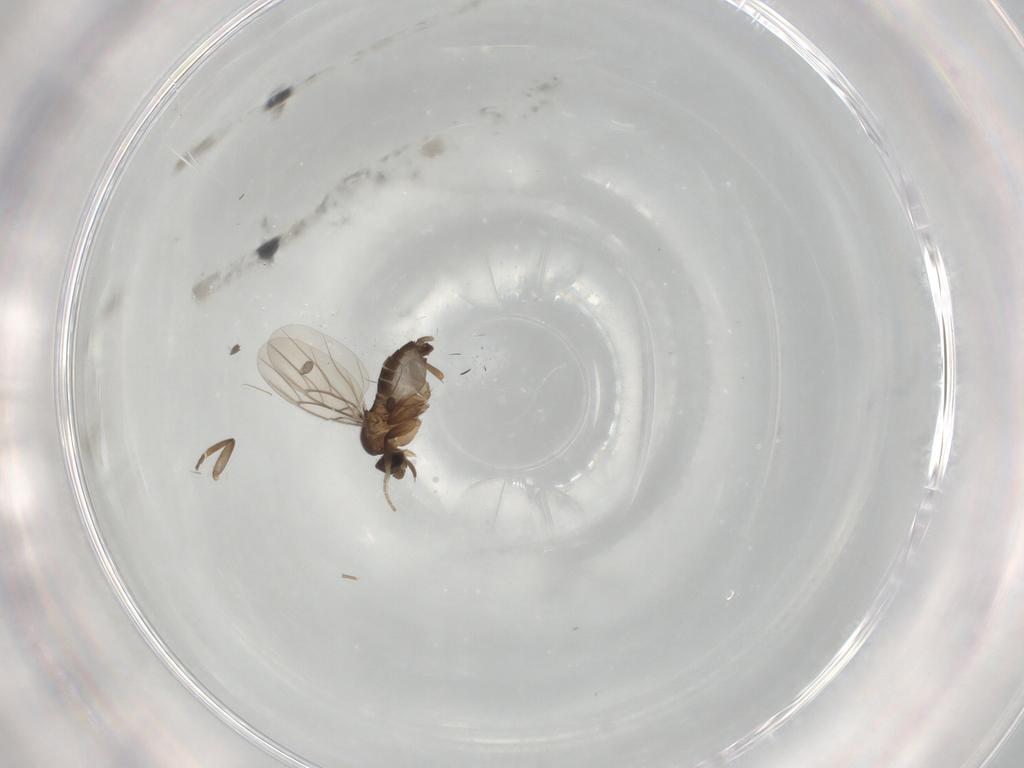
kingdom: Animalia
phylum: Arthropoda
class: Insecta
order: Diptera
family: Phoridae
